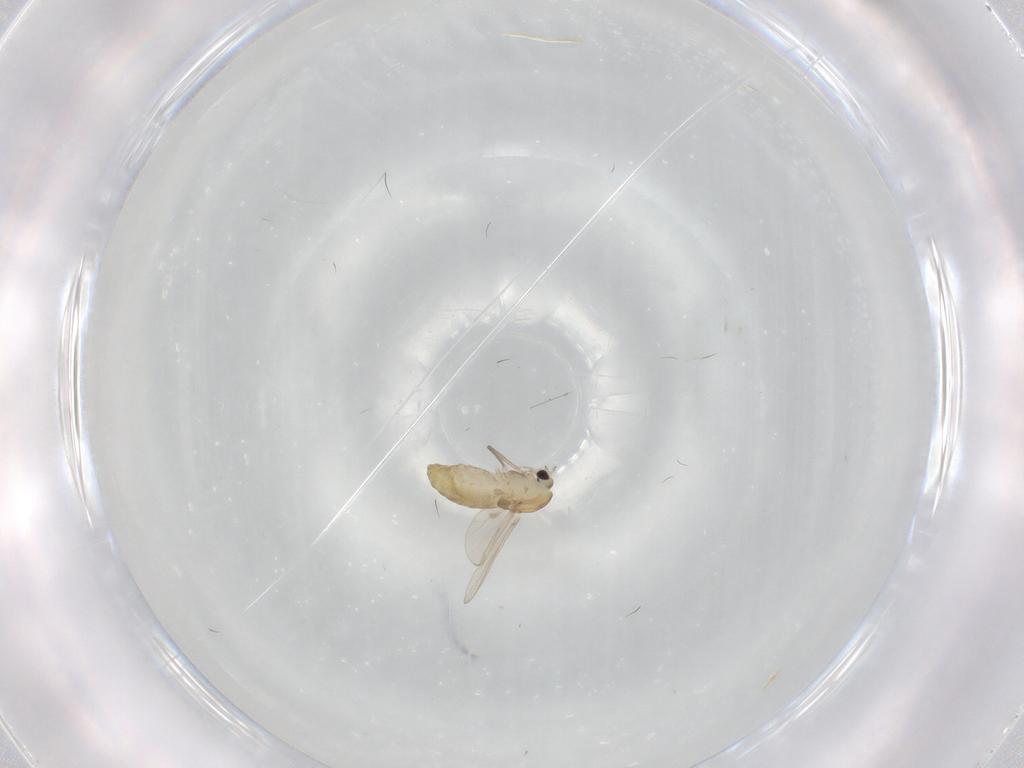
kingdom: Animalia
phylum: Arthropoda
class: Insecta
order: Diptera
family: Chironomidae
